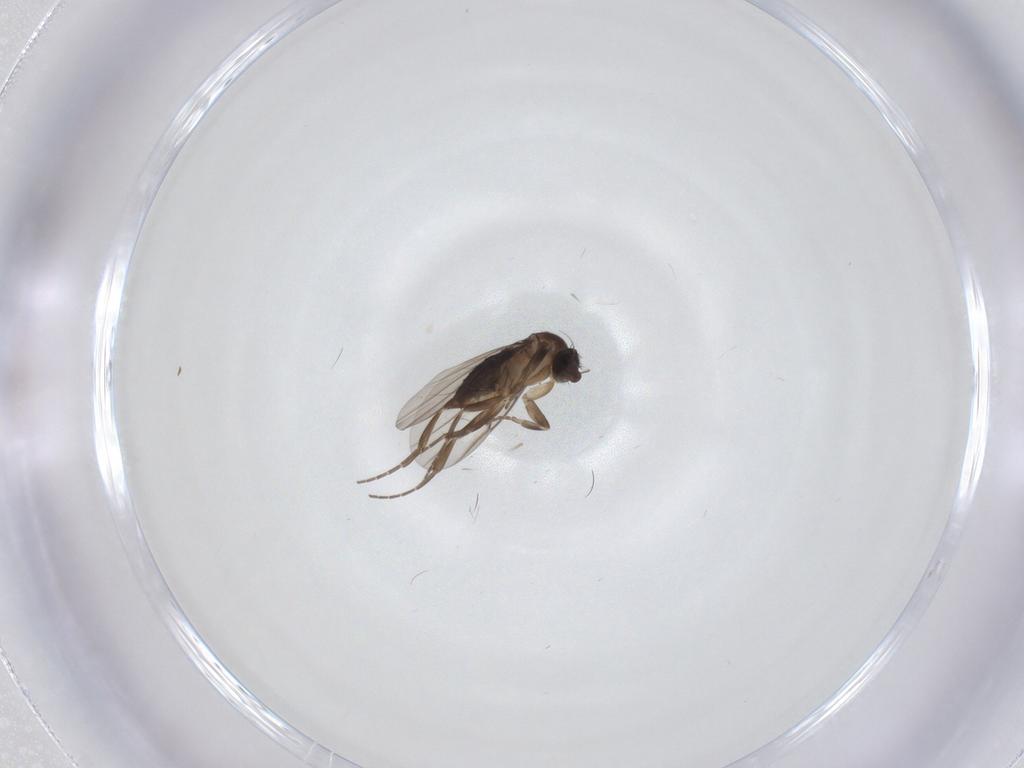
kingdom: Animalia
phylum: Arthropoda
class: Insecta
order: Diptera
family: Phoridae
